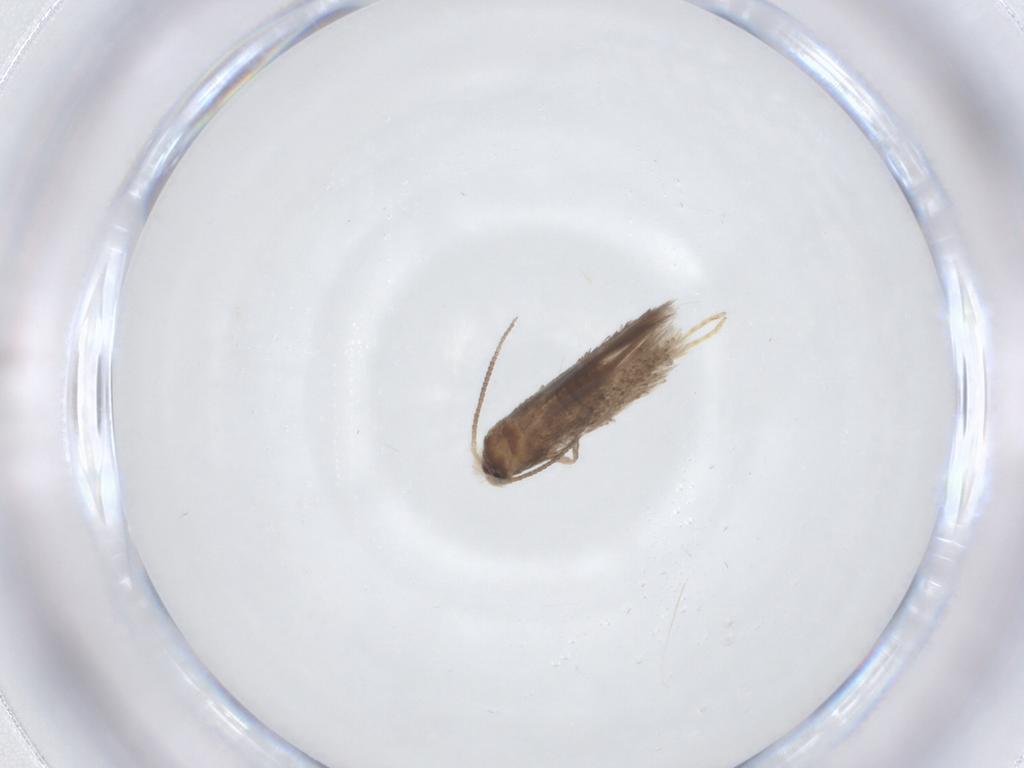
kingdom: Animalia
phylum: Arthropoda
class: Insecta
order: Lepidoptera
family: Nepticulidae
